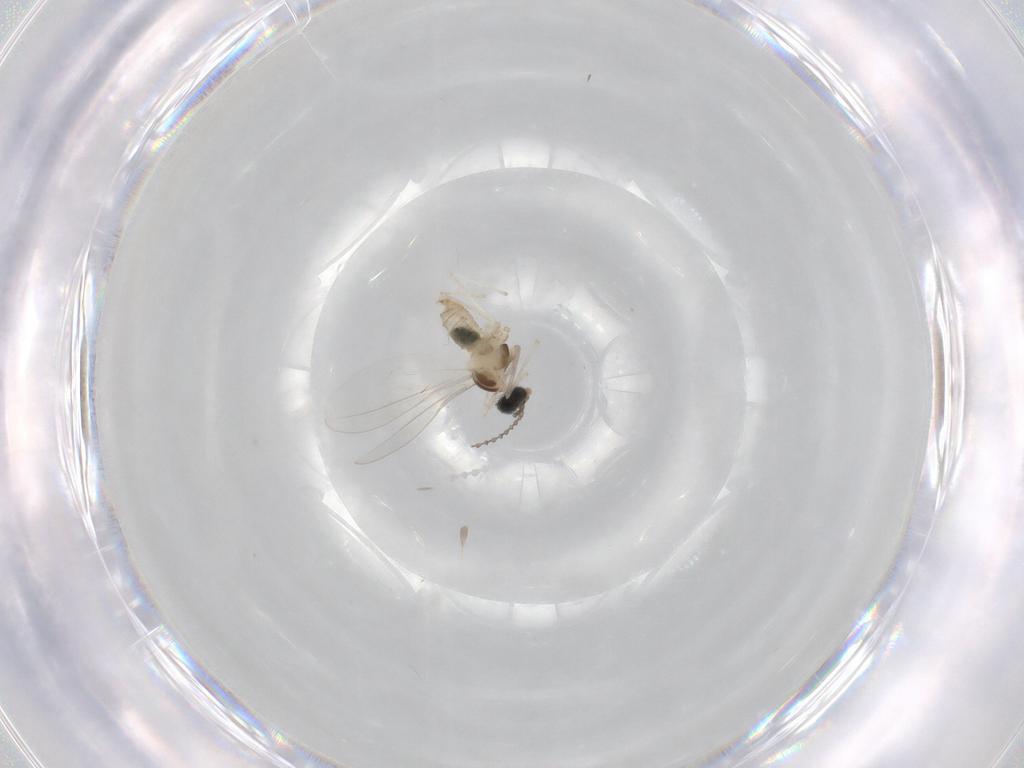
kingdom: Animalia
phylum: Arthropoda
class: Insecta
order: Diptera
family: Cecidomyiidae
